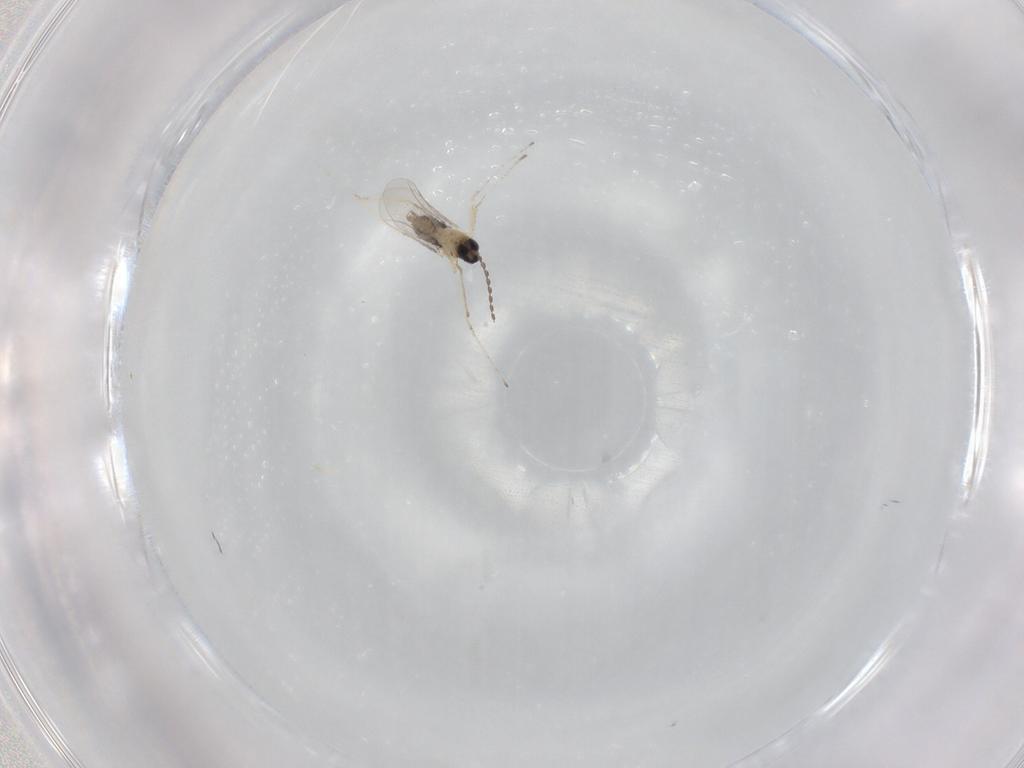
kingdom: Animalia
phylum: Arthropoda
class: Insecta
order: Diptera
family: Cecidomyiidae
